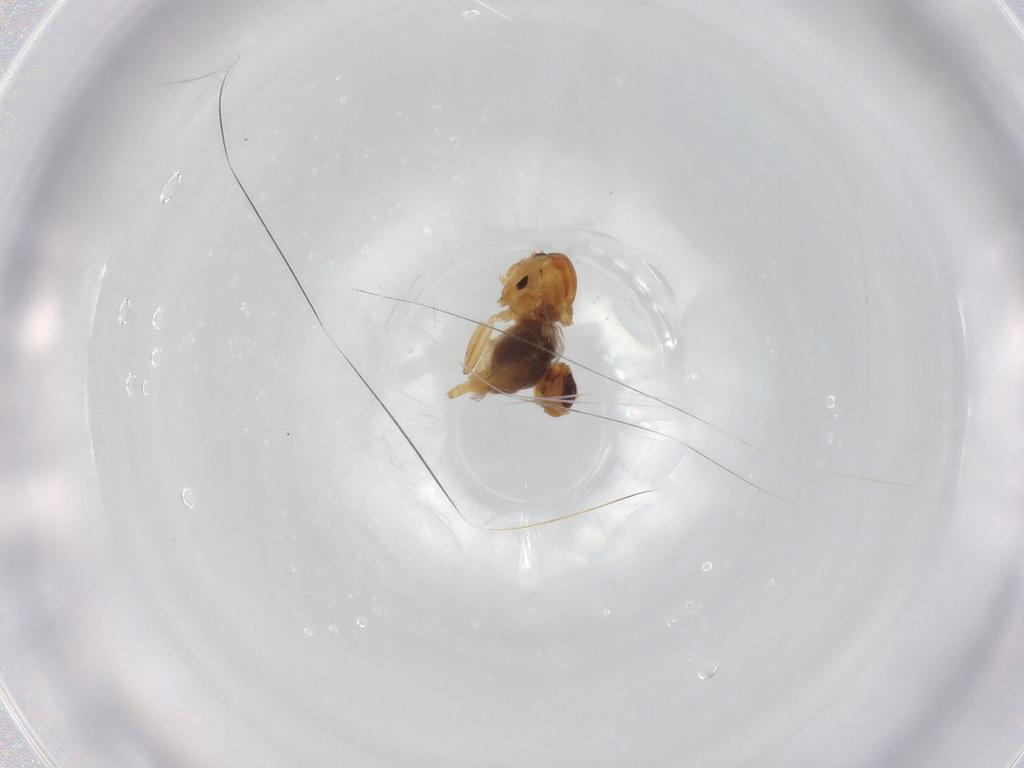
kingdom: Animalia
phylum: Arthropoda
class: Insecta
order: Diptera
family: Chloropidae
